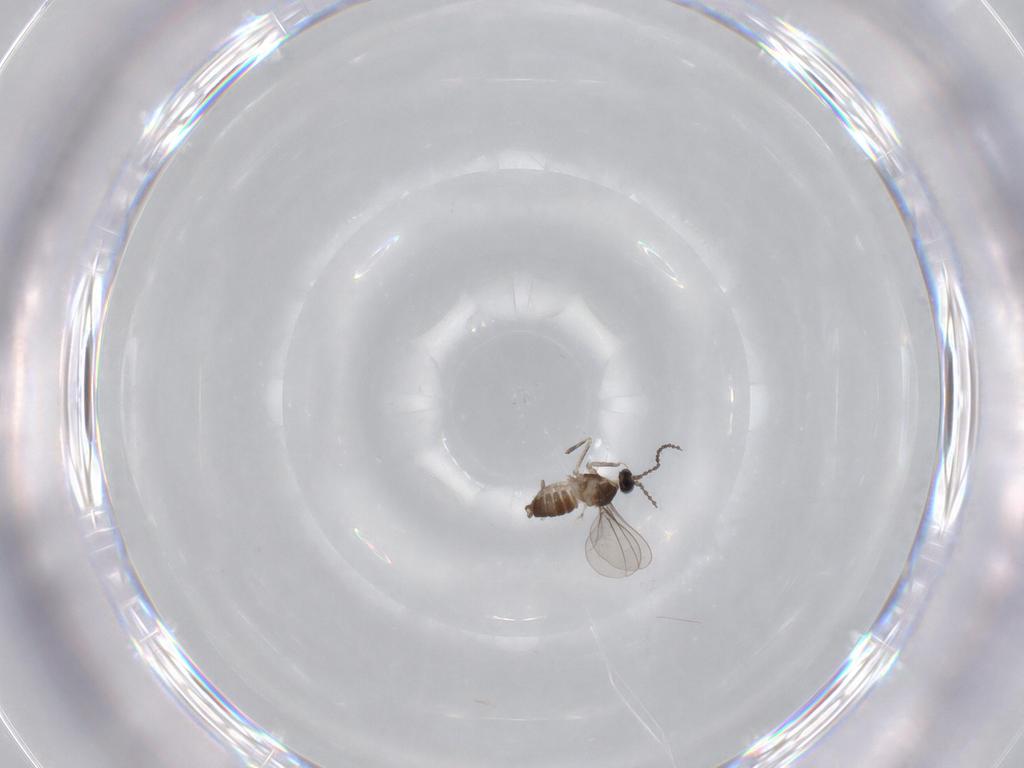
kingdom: Animalia
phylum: Arthropoda
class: Insecta
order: Diptera
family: Cecidomyiidae
